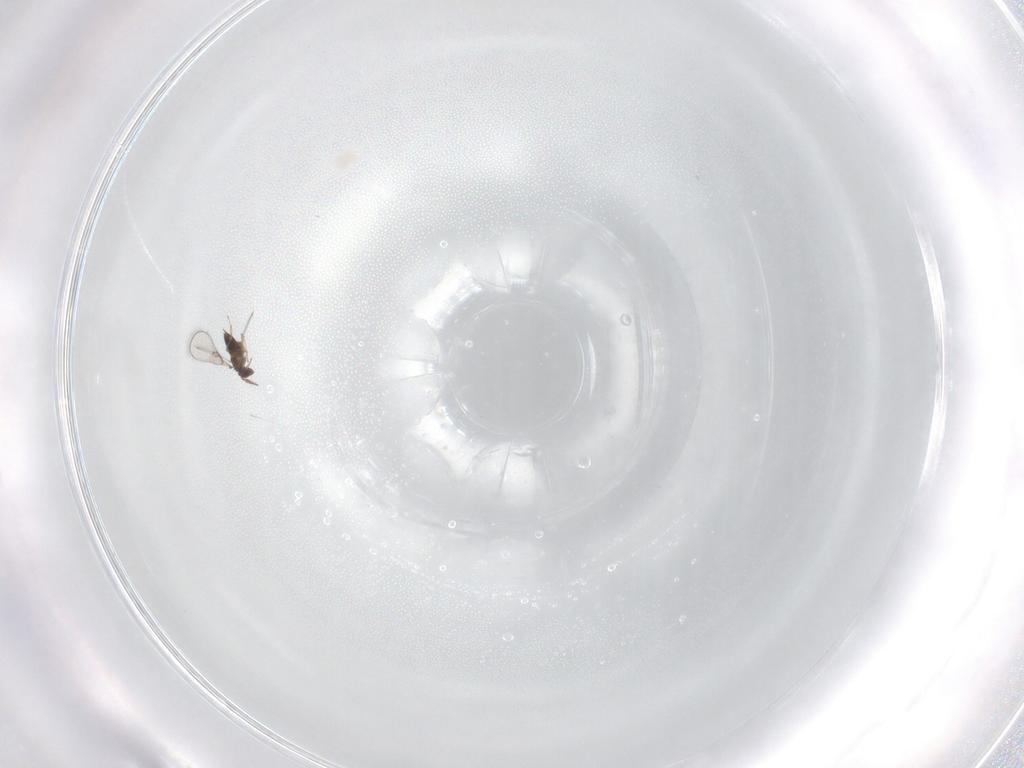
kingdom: Animalia
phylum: Arthropoda
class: Insecta
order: Hymenoptera
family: Trichogrammatidae
